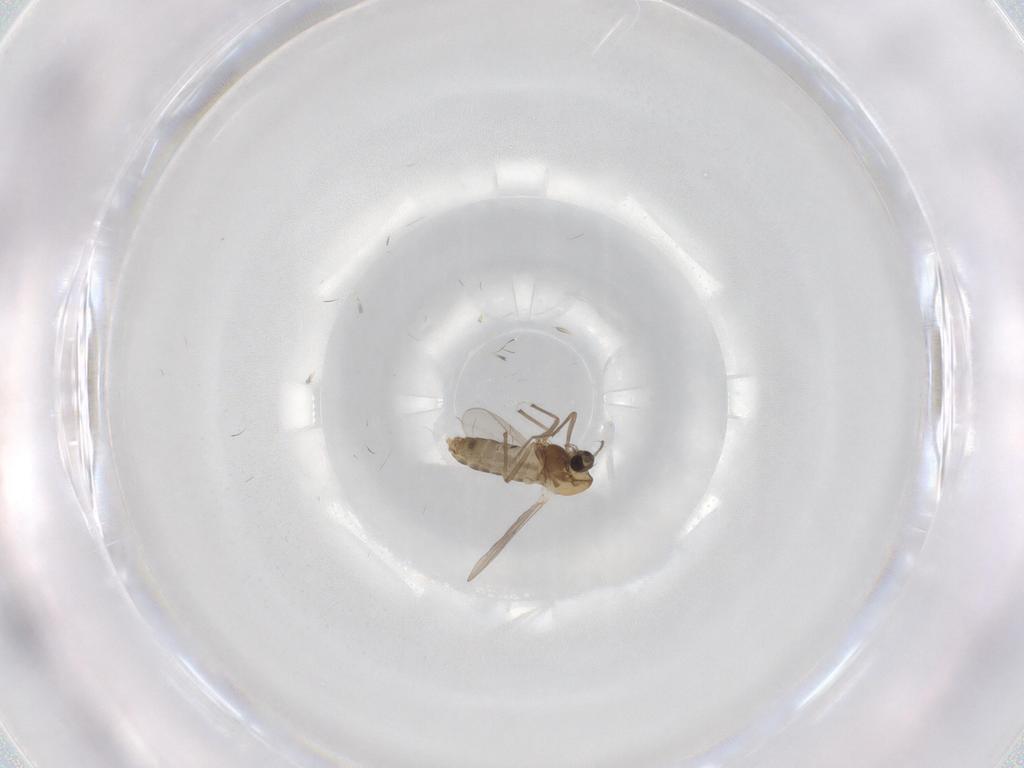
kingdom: Animalia
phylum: Arthropoda
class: Insecta
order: Diptera
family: Chironomidae
